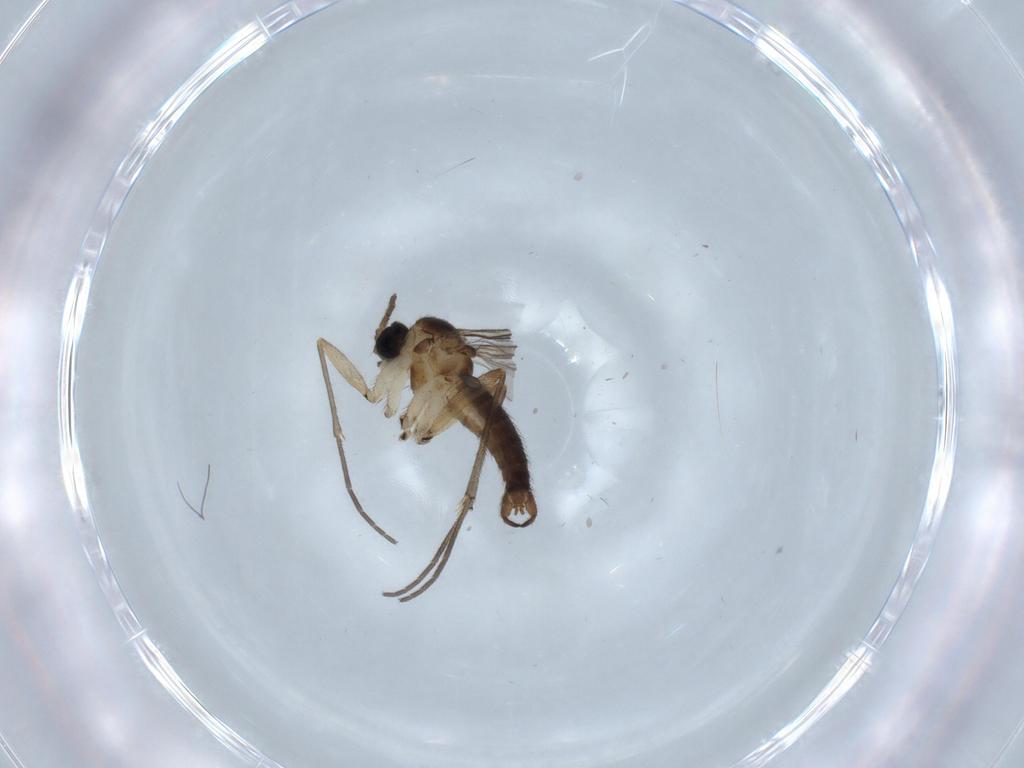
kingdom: Animalia
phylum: Arthropoda
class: Insecta
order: Diptera
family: Sciaridae
